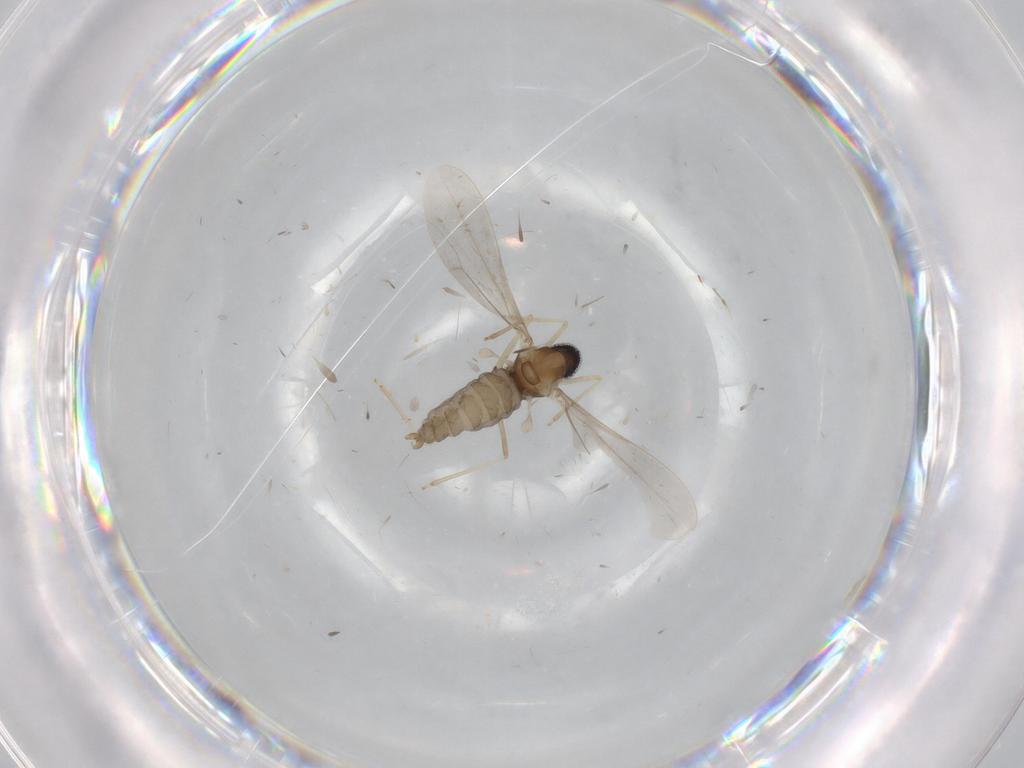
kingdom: Animalia
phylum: Arthropoda
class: Insecta
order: Diptera
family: Cecidomyiidae
